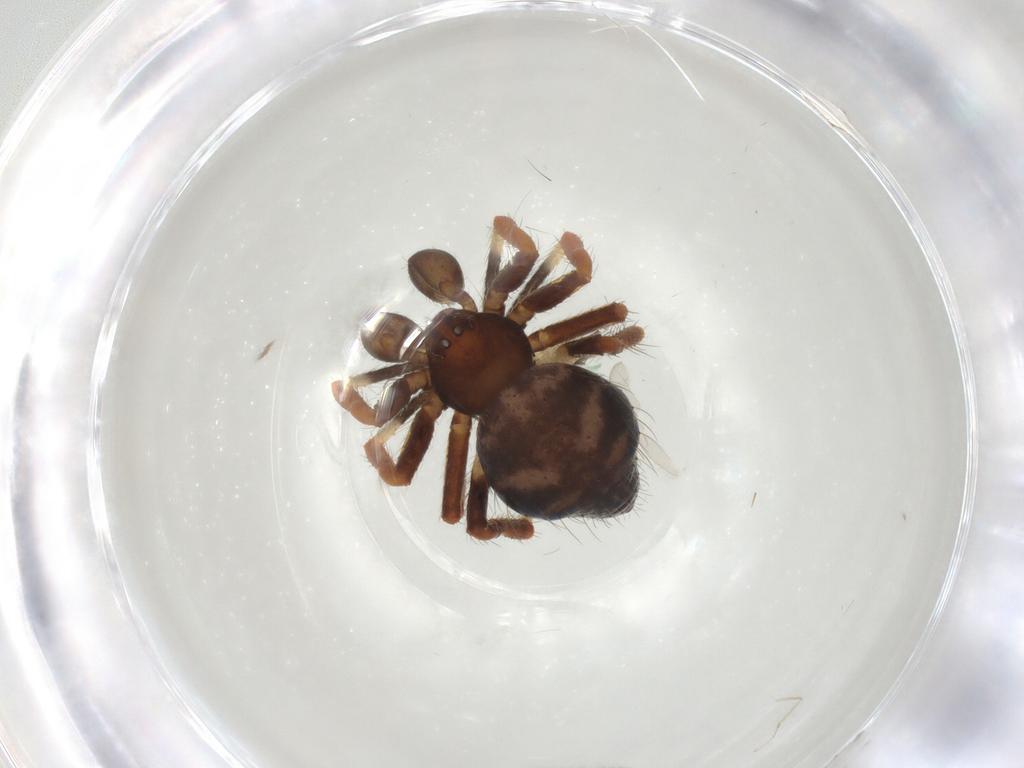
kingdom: Animalia
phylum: Arthropoda
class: Arachnida
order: Araneae
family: Theridiidae
